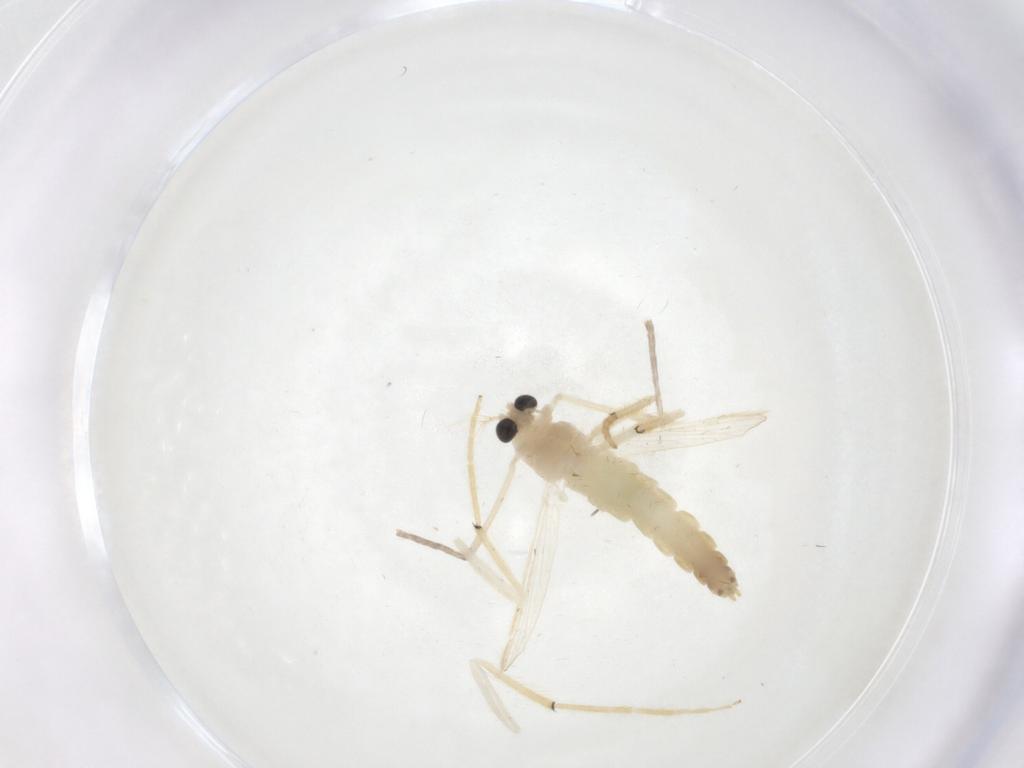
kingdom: Animalia
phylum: Arthropoda
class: Insecta
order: Diptera
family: Chironomidae
